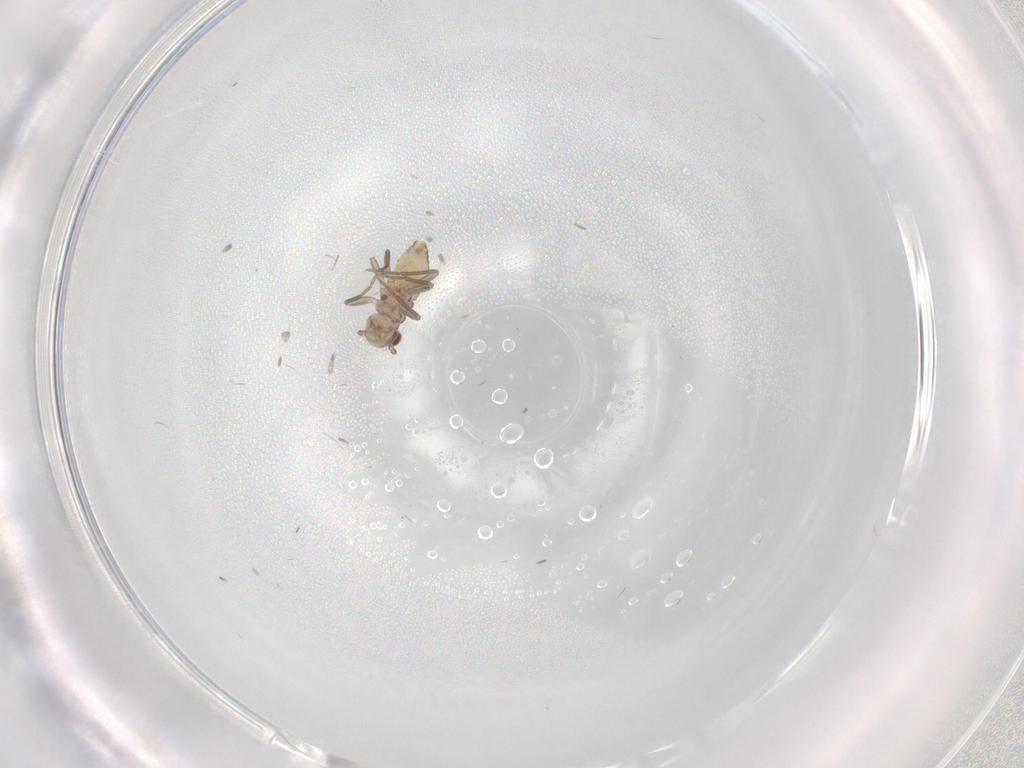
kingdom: Animalia
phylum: Arthropoda
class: Insecta
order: Psocodea
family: Mesopsocidae
